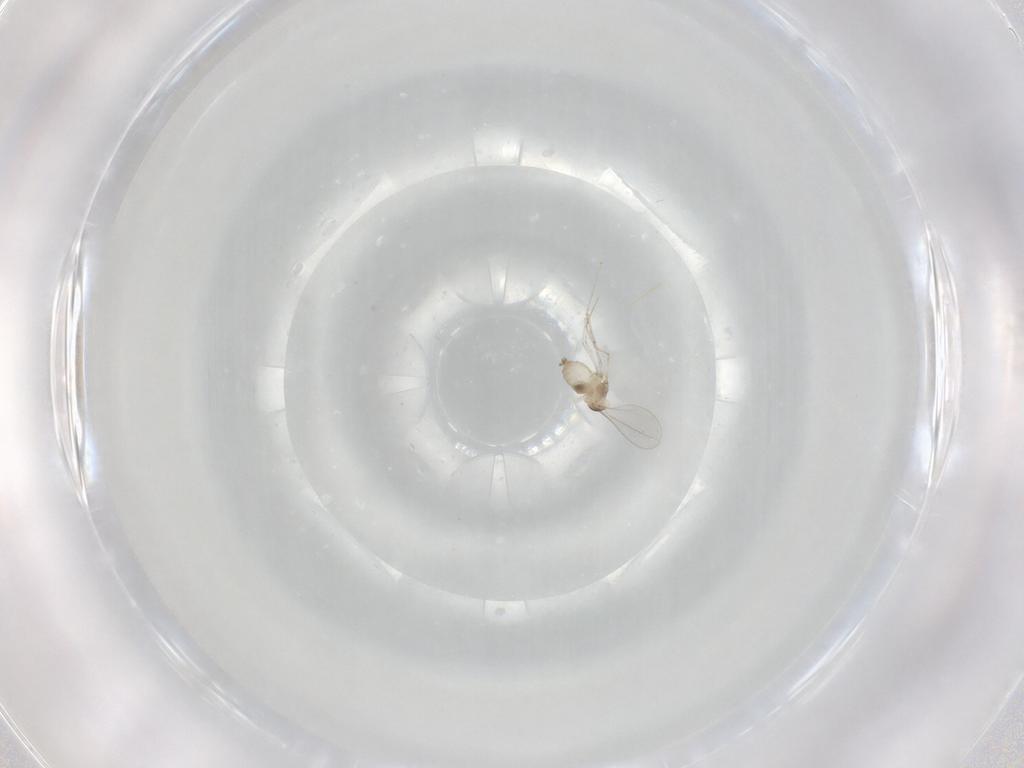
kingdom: Animalia
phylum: Arthropoda
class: Insecta
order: Diptera
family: Cecidomyiidae
